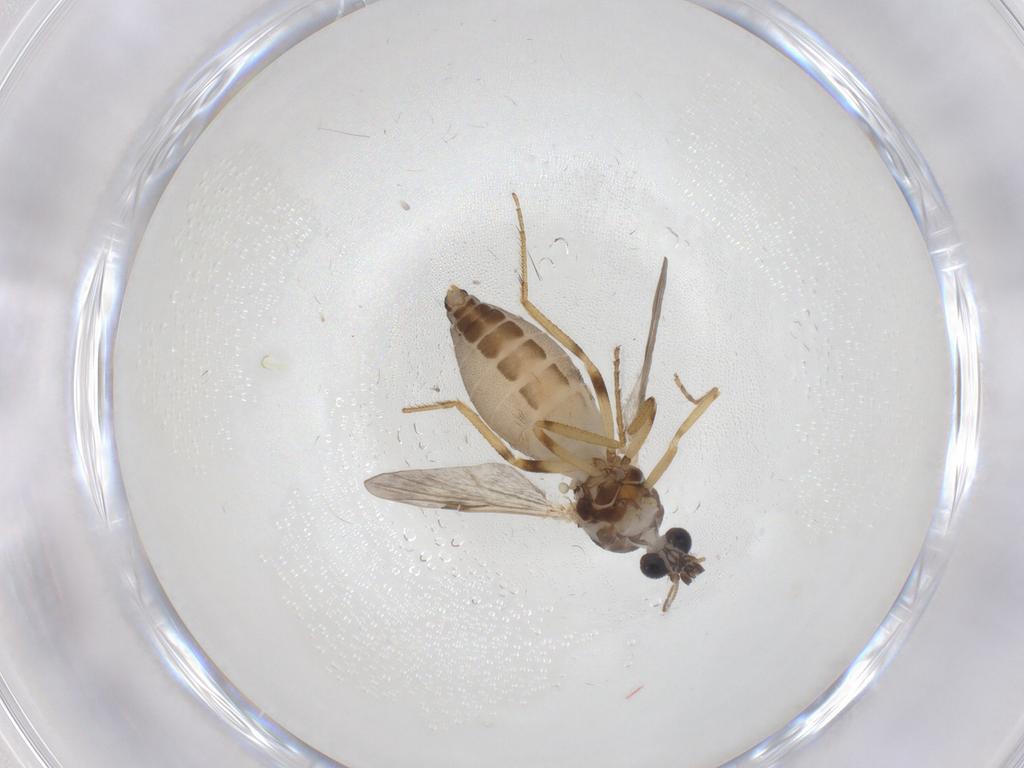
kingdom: Animalia
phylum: Arthropoda
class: Insecta
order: Diptera
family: Ceratopogonidae
